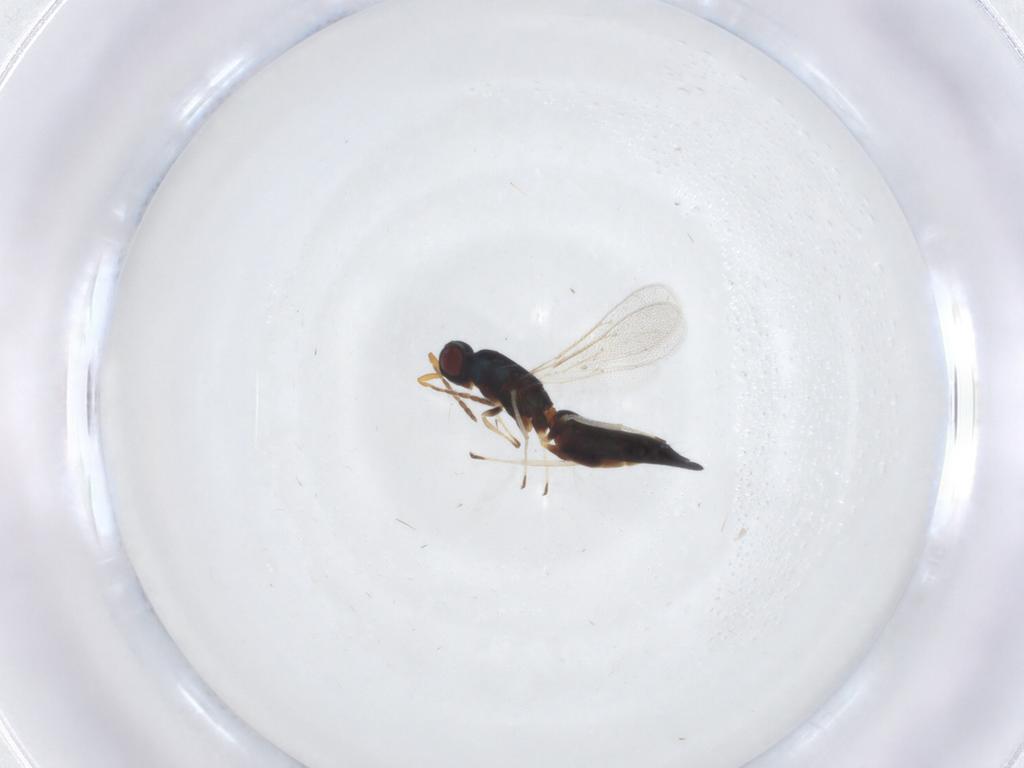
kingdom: Animalia
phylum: Arthropoda
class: Insecta
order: Hymenoptera
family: Eulophidae
